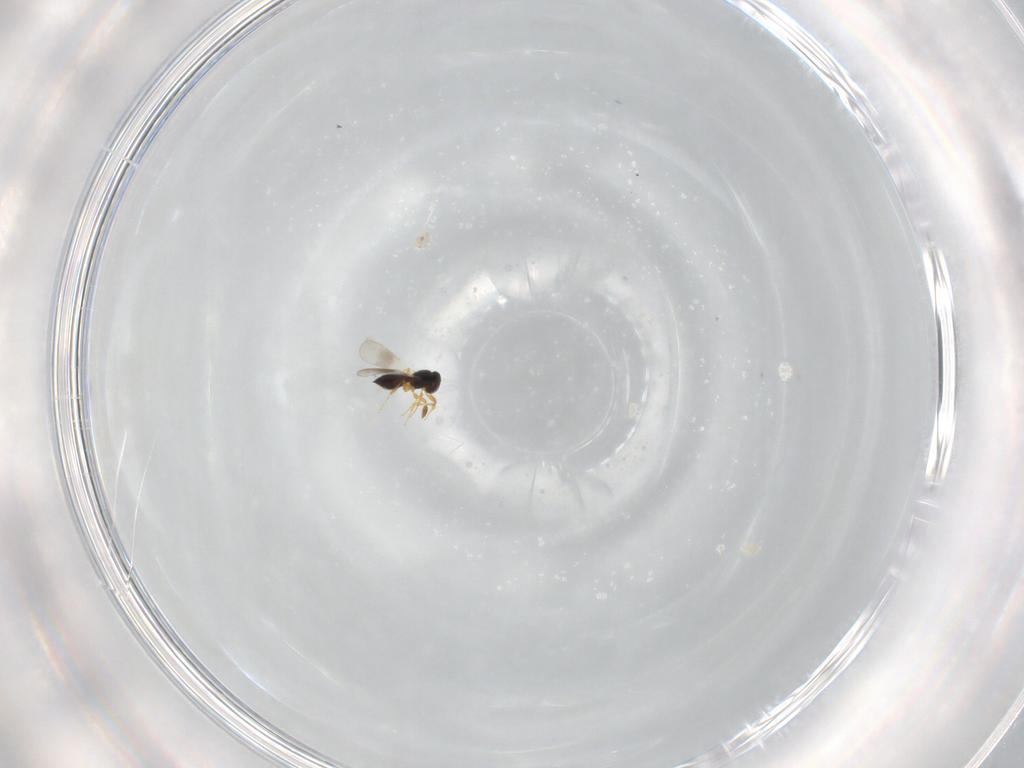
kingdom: Animalia
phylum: Arthropoda
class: Insecta
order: Hymenoptera
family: Platygastridae
